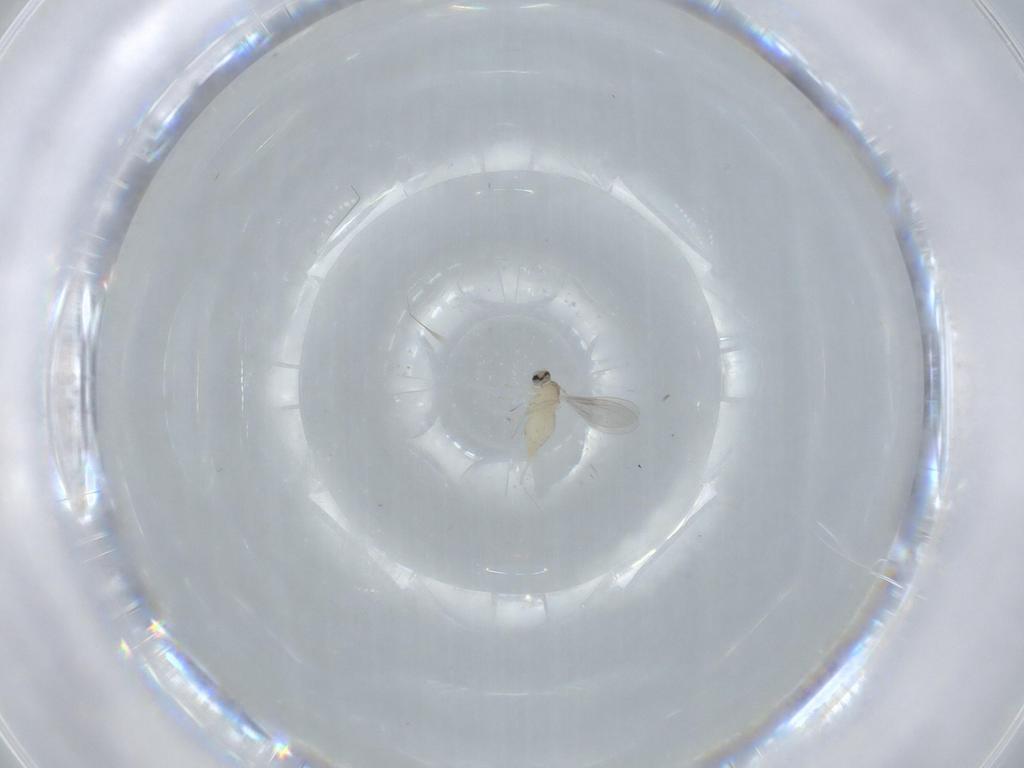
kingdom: Animalia
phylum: Arthropoda
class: Insecta
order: Diptera
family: Cecidomyiidae
